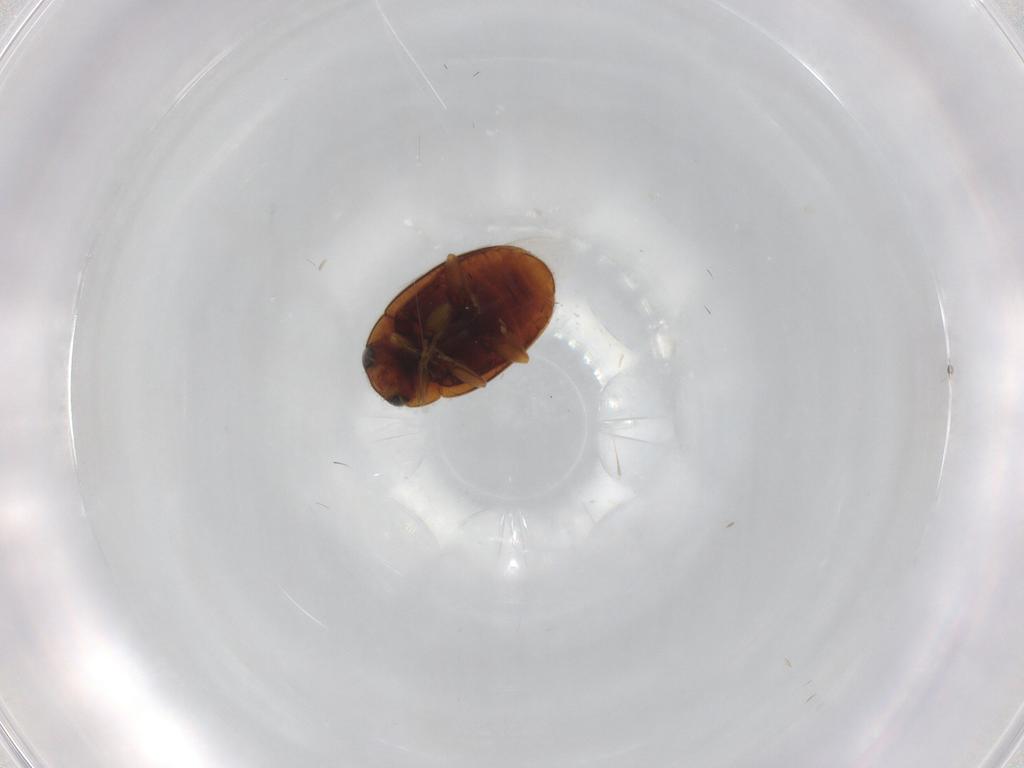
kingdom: Animalia
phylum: Arthropoda
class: Insecta
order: Coleoptera
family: Coccinellidae
